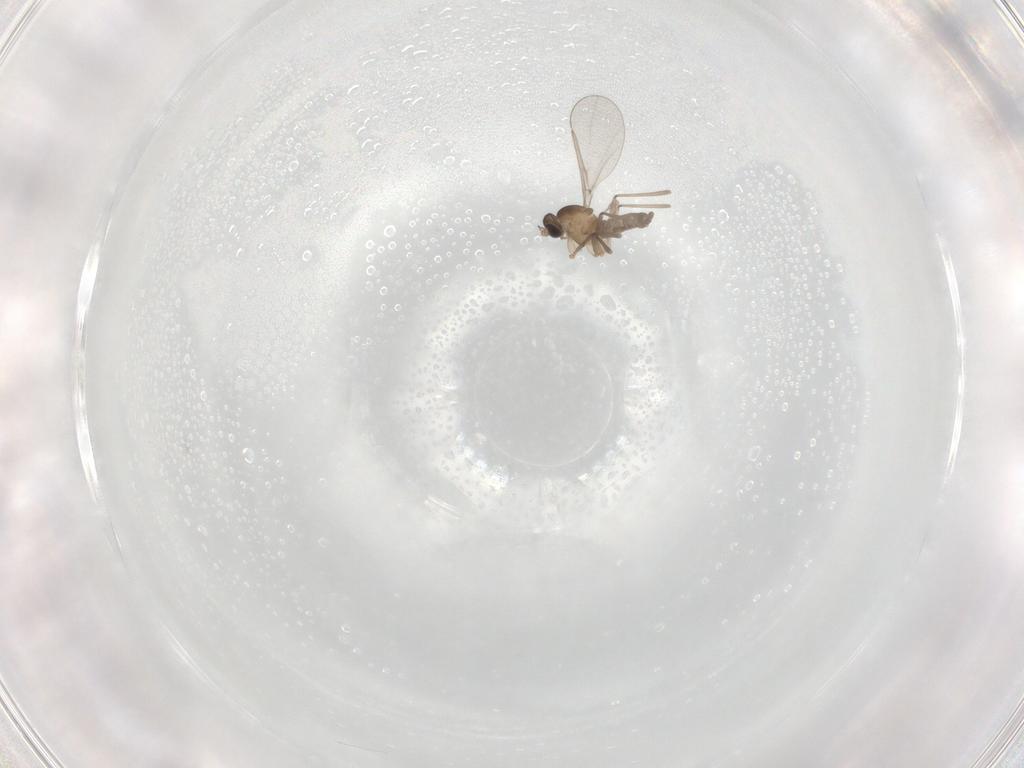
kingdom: Animalia
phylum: Arthropoda
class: Insecta
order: Diptera
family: Cecidomyiidae
